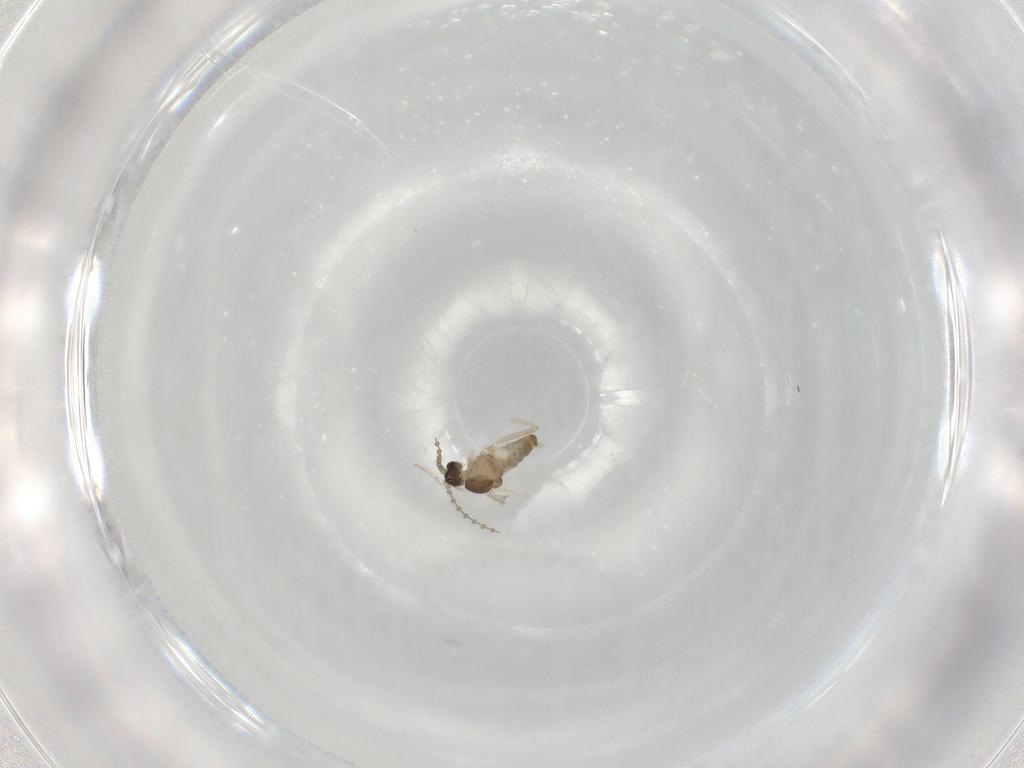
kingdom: Animalia
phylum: Arthropoda
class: Insecta
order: Diptera
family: Cecidomyiidae
